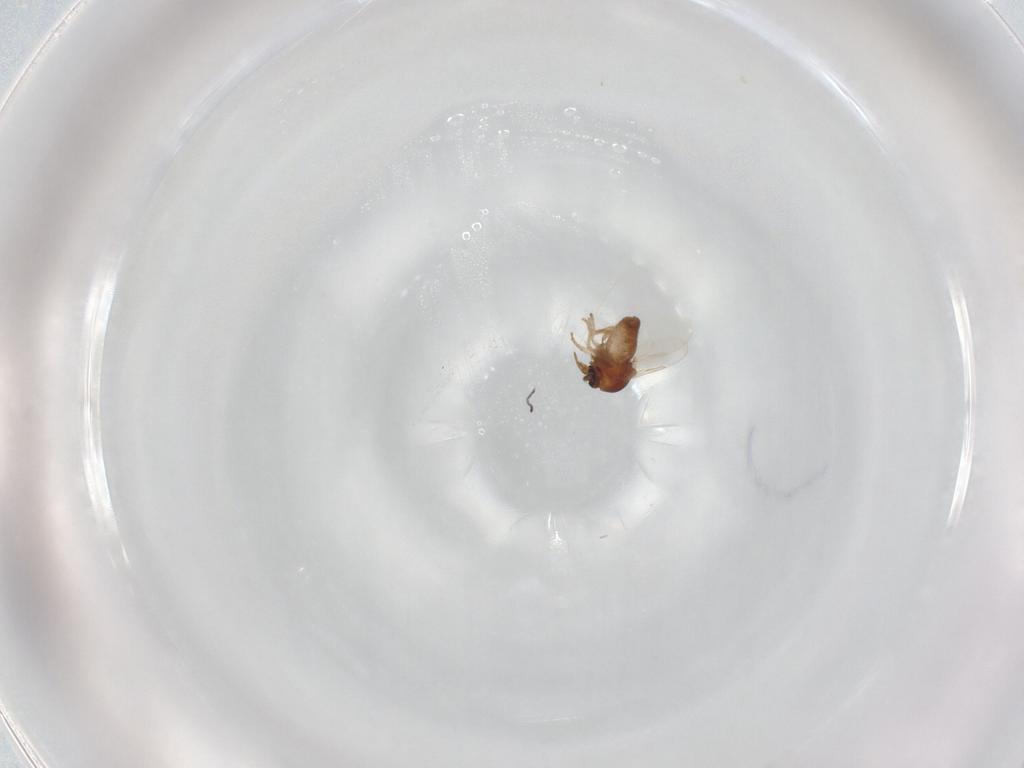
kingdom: Animalia
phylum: Arthropoda
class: Insecta
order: Diptera
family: Ceratopogonidae
